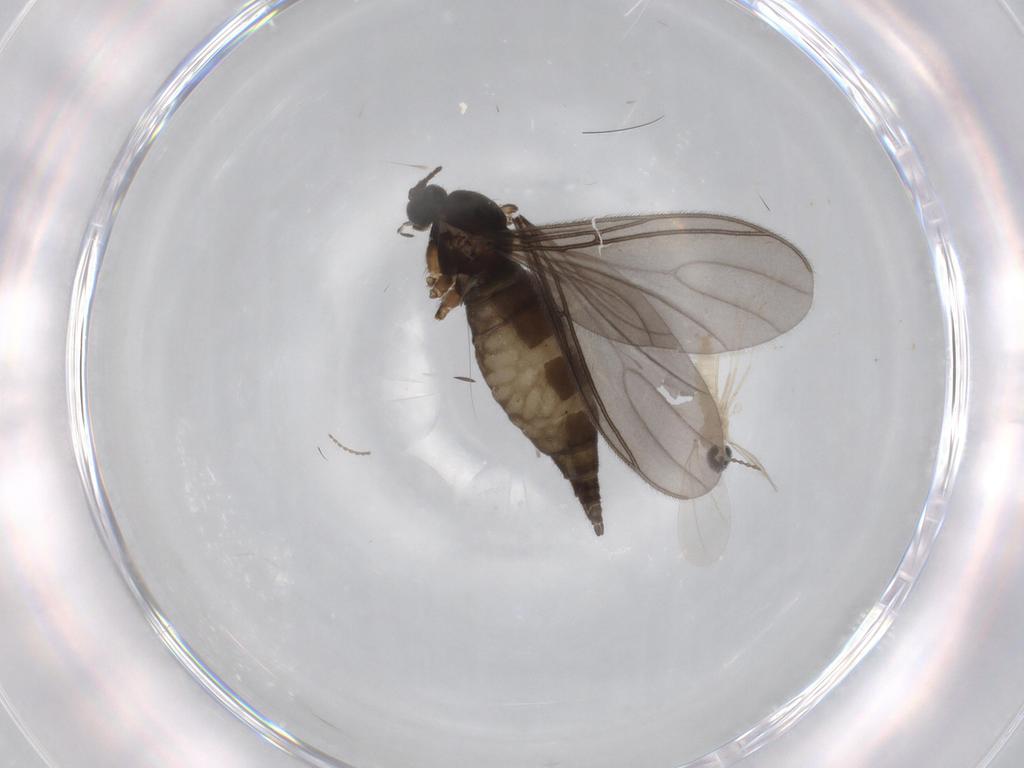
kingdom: Animalia
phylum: Arthropoda
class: Insecta
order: Diptera
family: Cecidomyiidae
